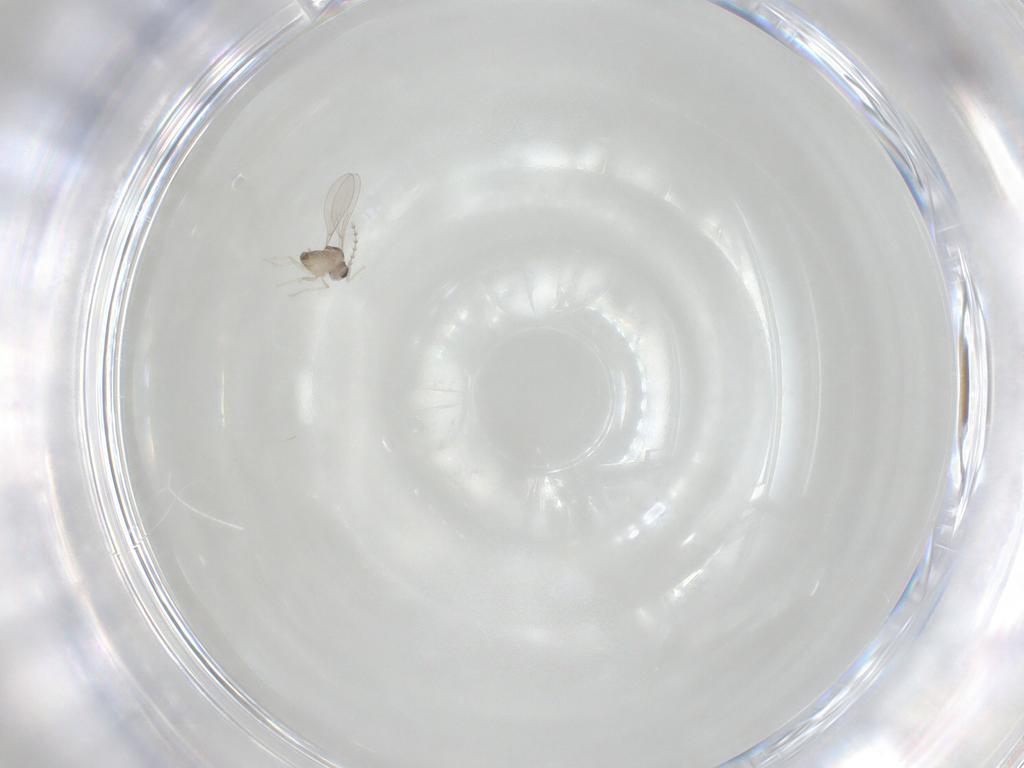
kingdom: Animalia
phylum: Arthropoda
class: Insecta
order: Diptera
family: Cecidomyiidae
